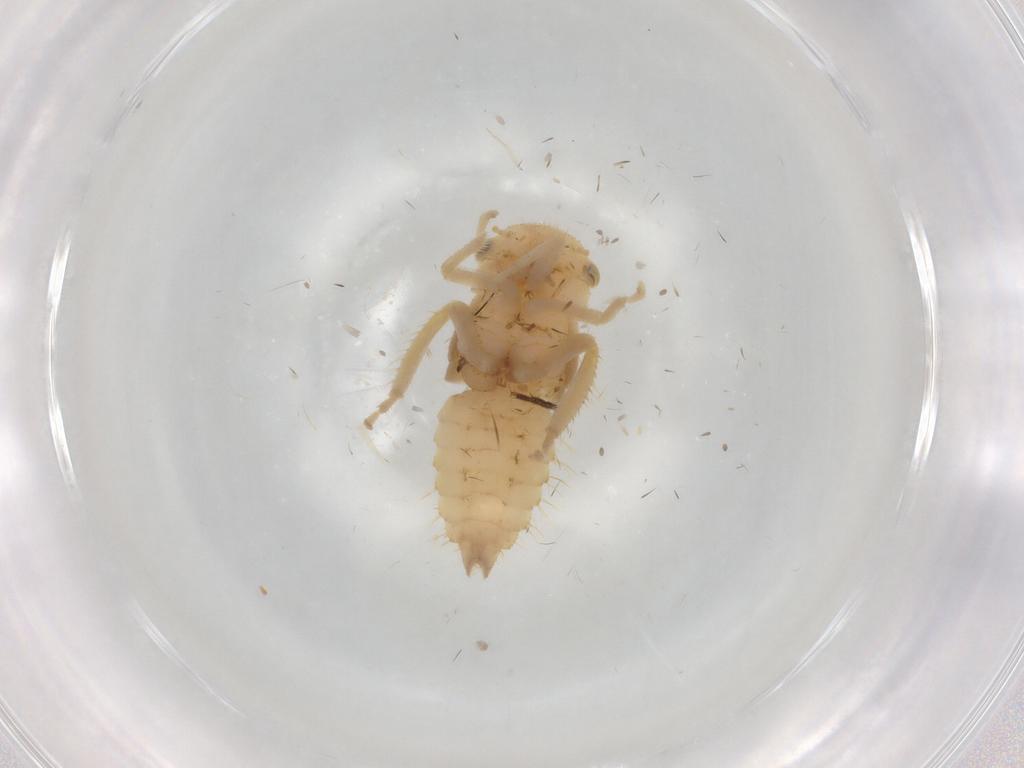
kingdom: Animalia
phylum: Arthropoda
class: Insecta
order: Hemiptera
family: Cicadellidae
